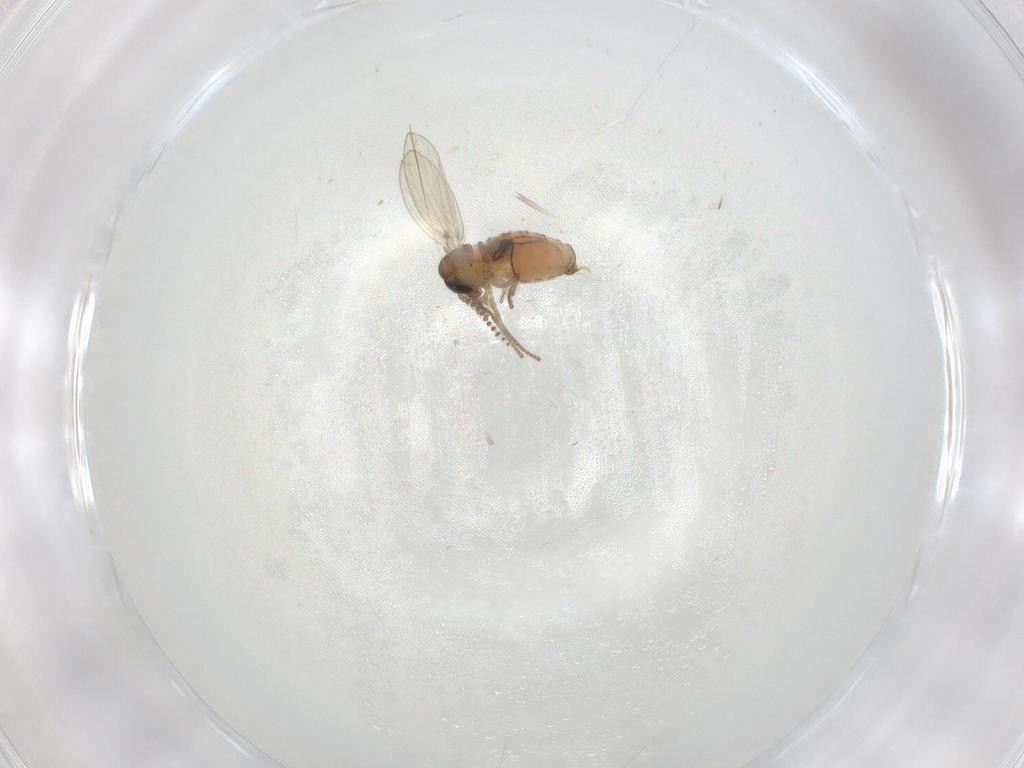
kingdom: Animalia
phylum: Arthropoda
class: Insecta
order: Diptera
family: Psychodidae
